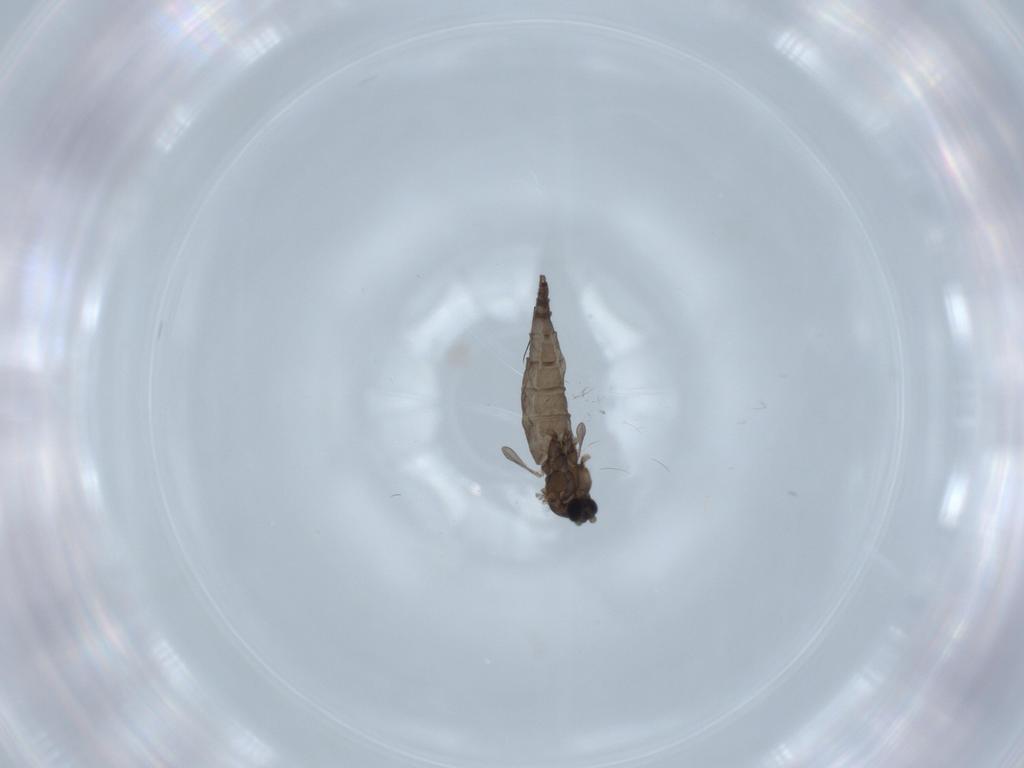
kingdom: Animalia
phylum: Arthropoda
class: Insecta
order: Diptera
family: Sciaridae
